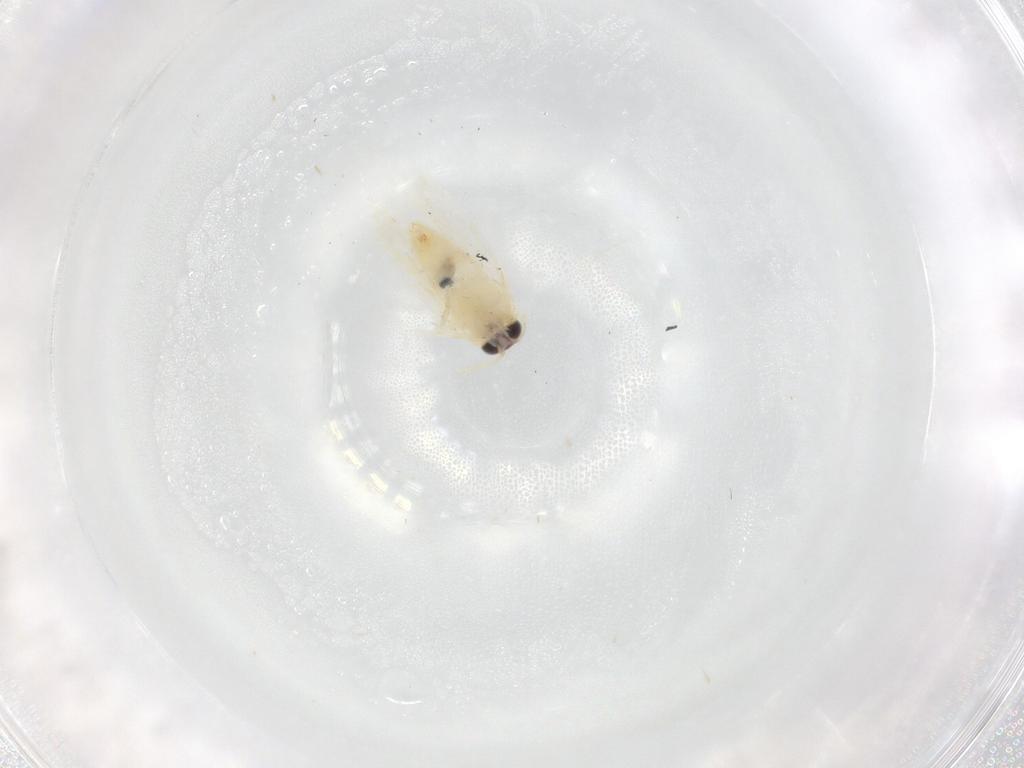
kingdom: Animalia
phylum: Arthropoda
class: Insecta
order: Lepidoptera
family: Nepticulidae
